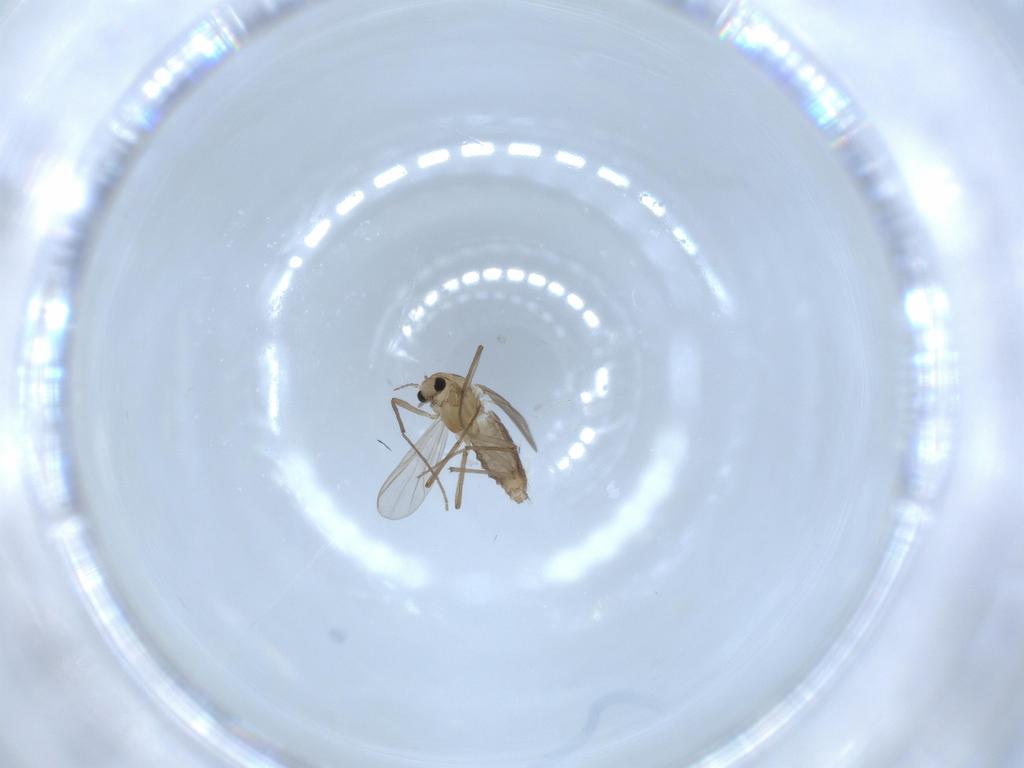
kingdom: Animalia
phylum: Arthropoda
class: Insecta
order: Diptera
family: Chironomidae
